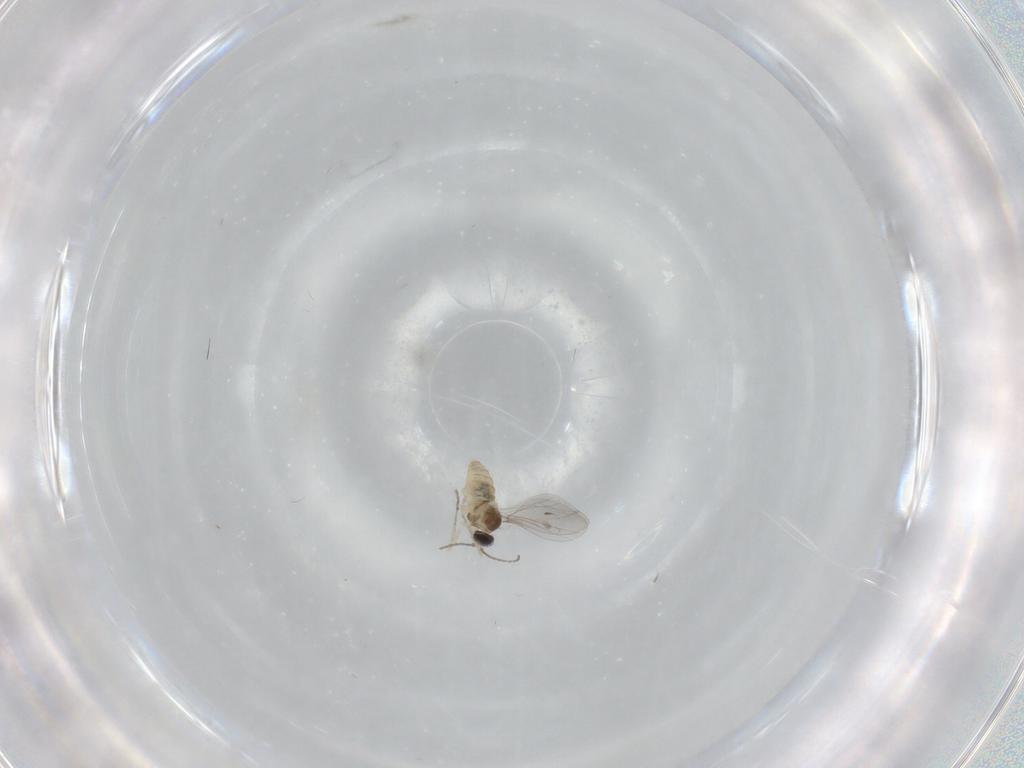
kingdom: Animalia
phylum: Arthropoda
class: Insecta
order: Diptera
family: Cecidomyiidae
